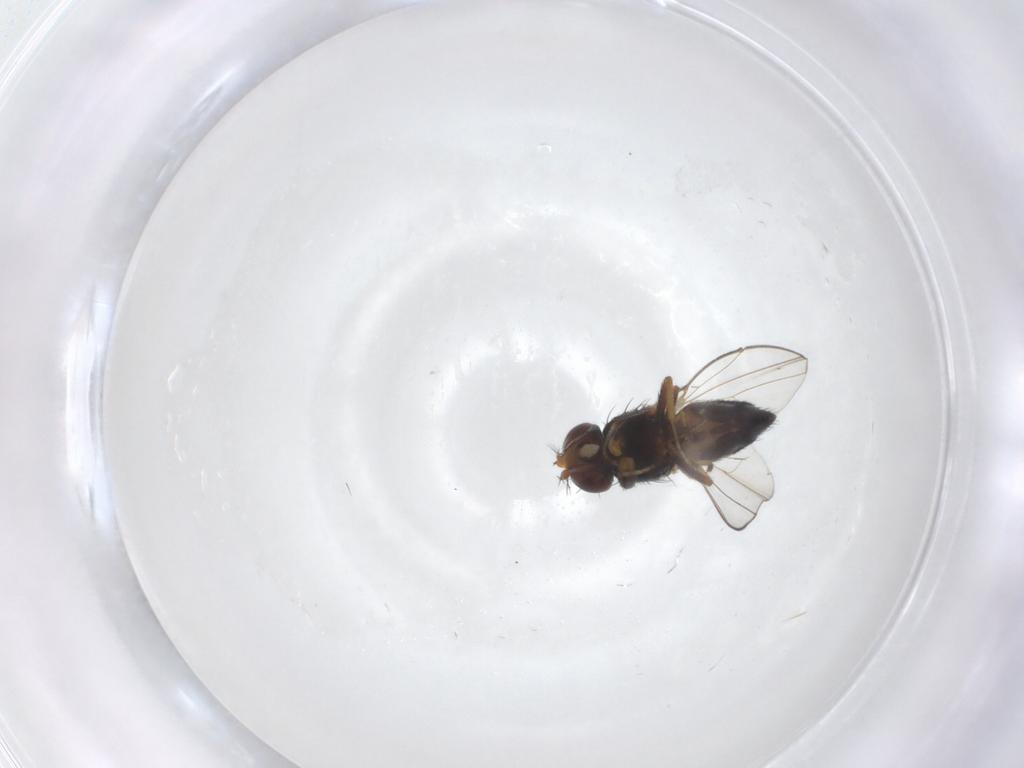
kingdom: Animalia
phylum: Arthropoda
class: Insecta
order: Diptera
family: Ephydridae
